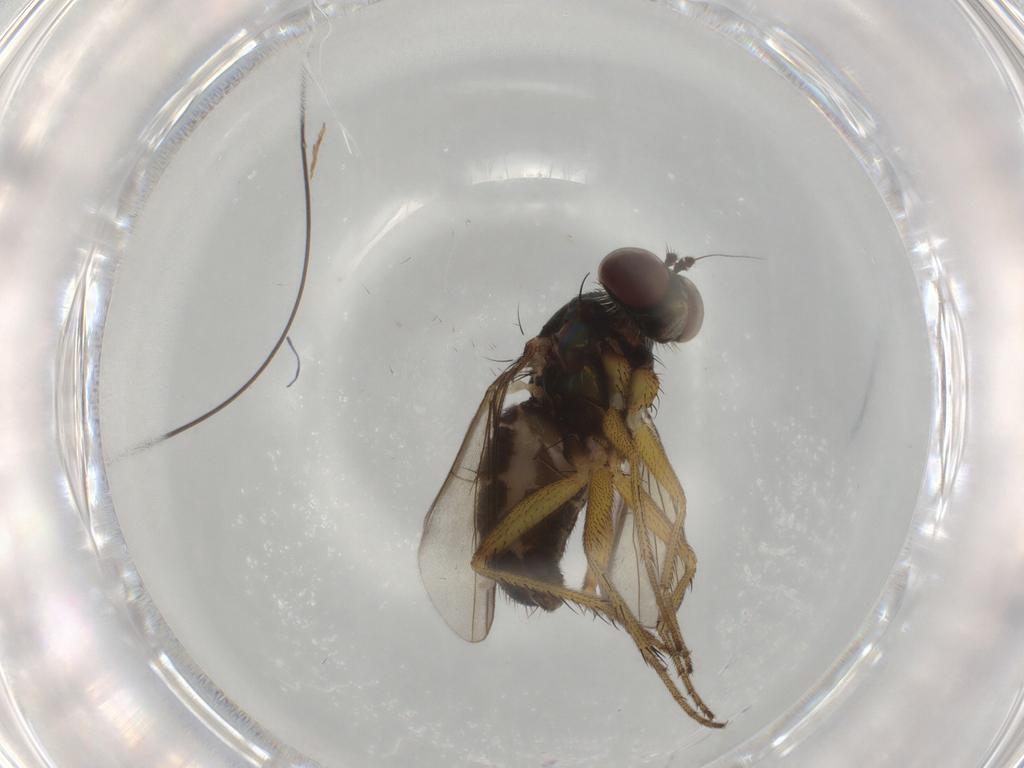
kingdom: Animalia
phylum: Arthropoda
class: Insecta
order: Diptera
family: Dolichopodidae
